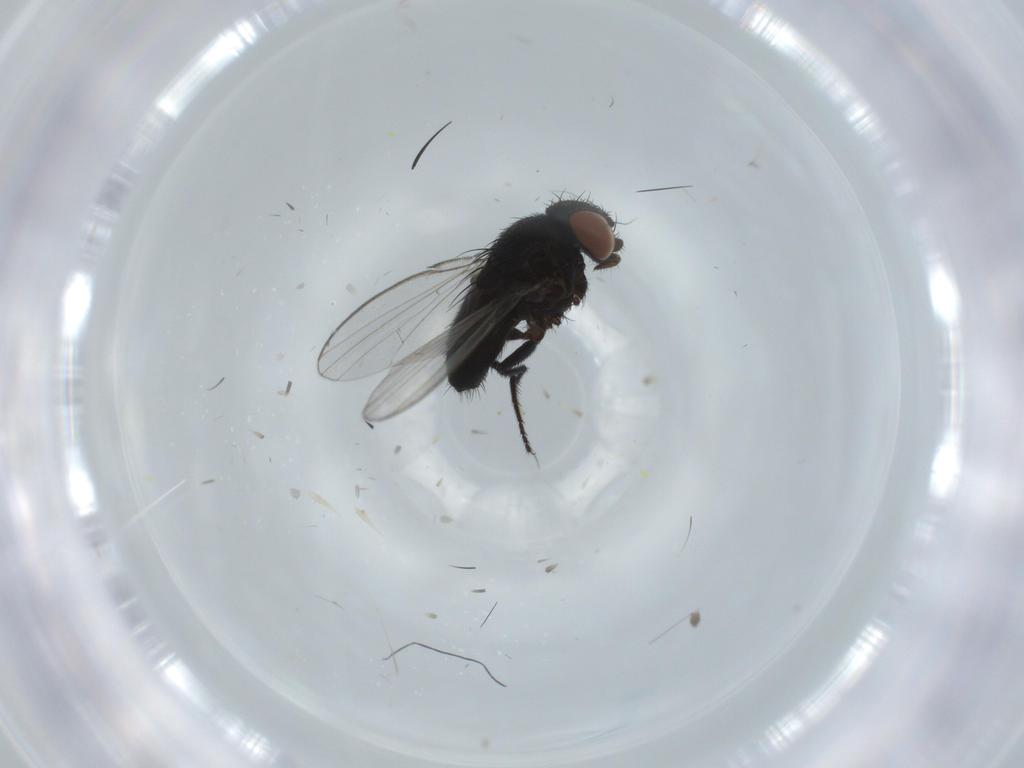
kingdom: Animalia
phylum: Arthropoda
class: Insecta
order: Diptera
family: Milichiidae
